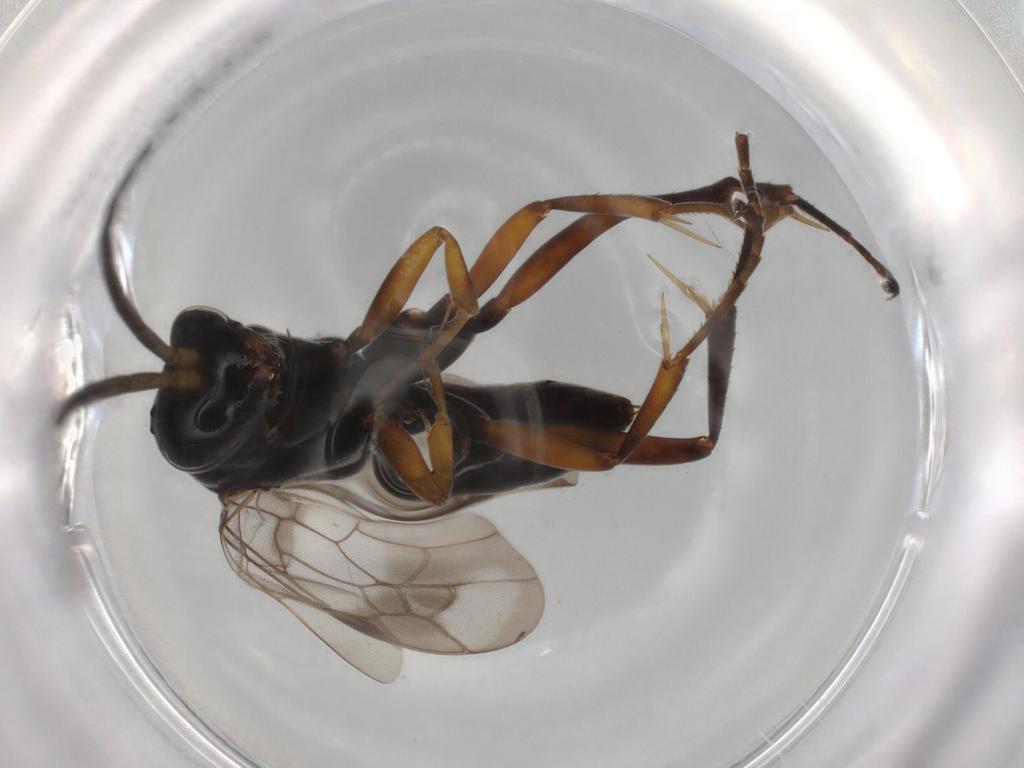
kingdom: Animalia
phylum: Arthropoda
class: Insecta
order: Hymenoptera
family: Pompilidae
